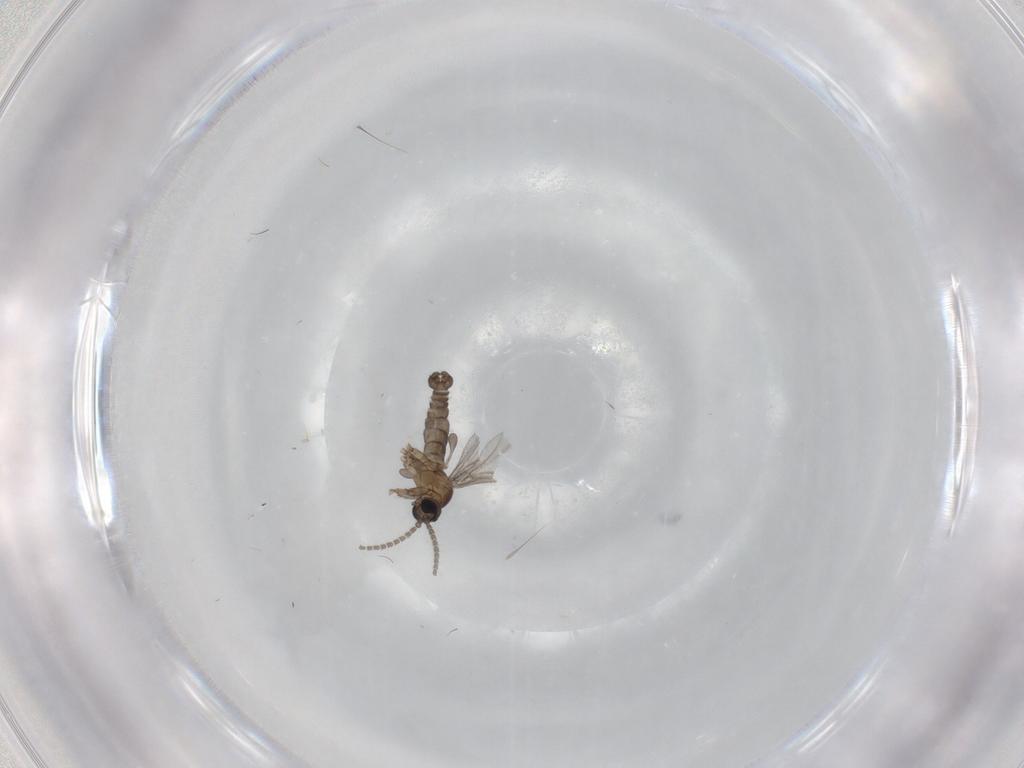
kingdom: Animalia
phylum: Arthropoda
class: Insecta
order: Diptera
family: Sciaridae
